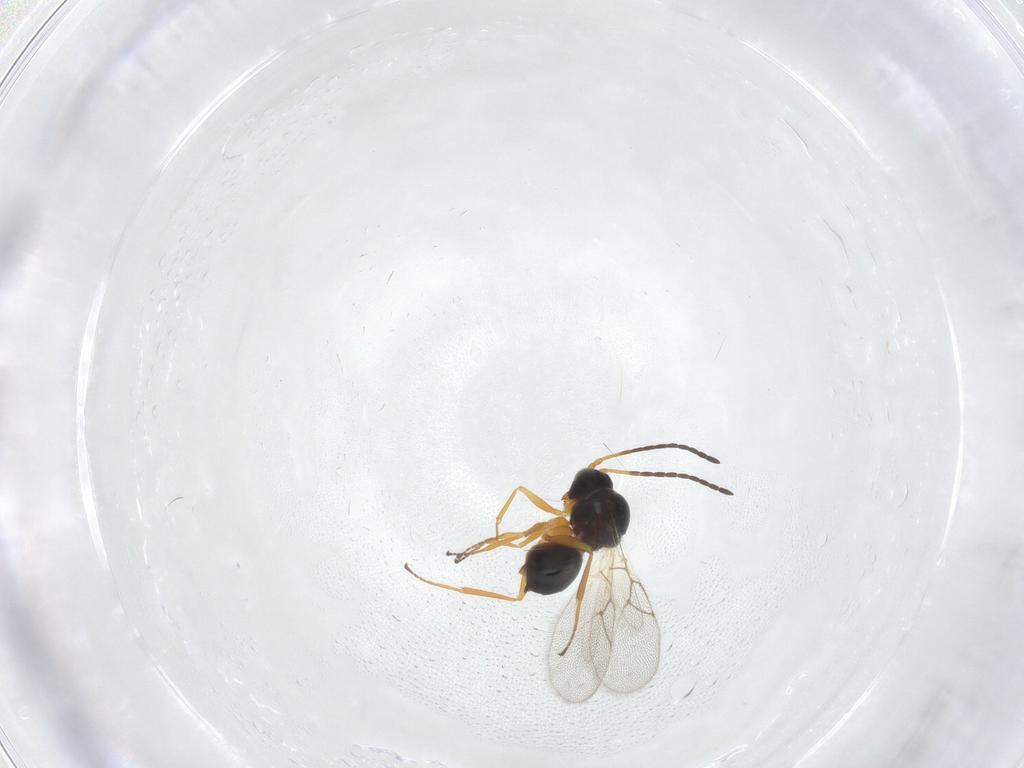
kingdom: Animalia
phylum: Arthropoda
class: Insecta
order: Hymenoptera
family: Figitidae
